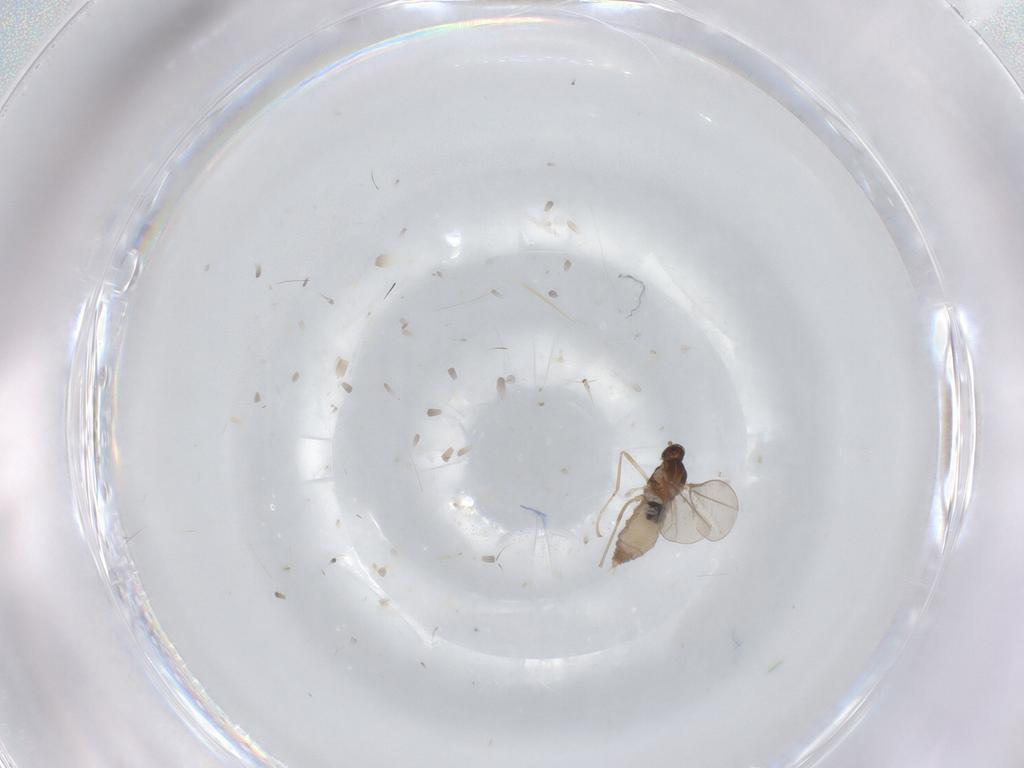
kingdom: Animalia
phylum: Arthropoda
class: Insecta
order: Diptera
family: Cecidomyiidae
